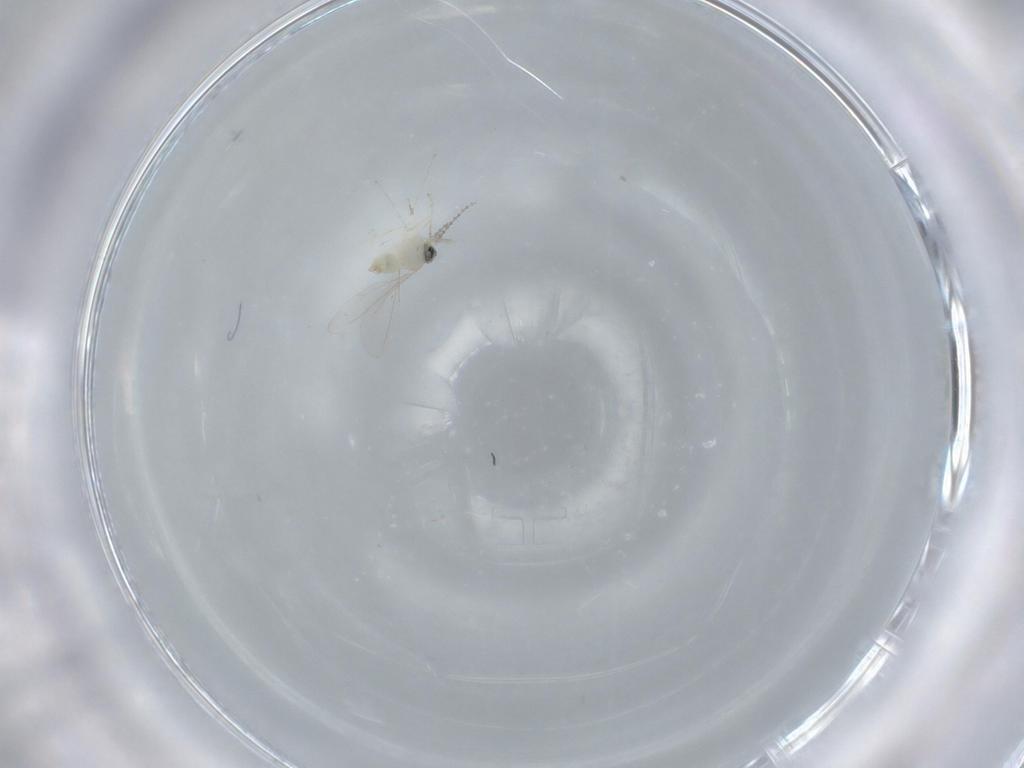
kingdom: Animalia
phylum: Arthropoda
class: Insecta
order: Diptera
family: Cecidomyiidae
